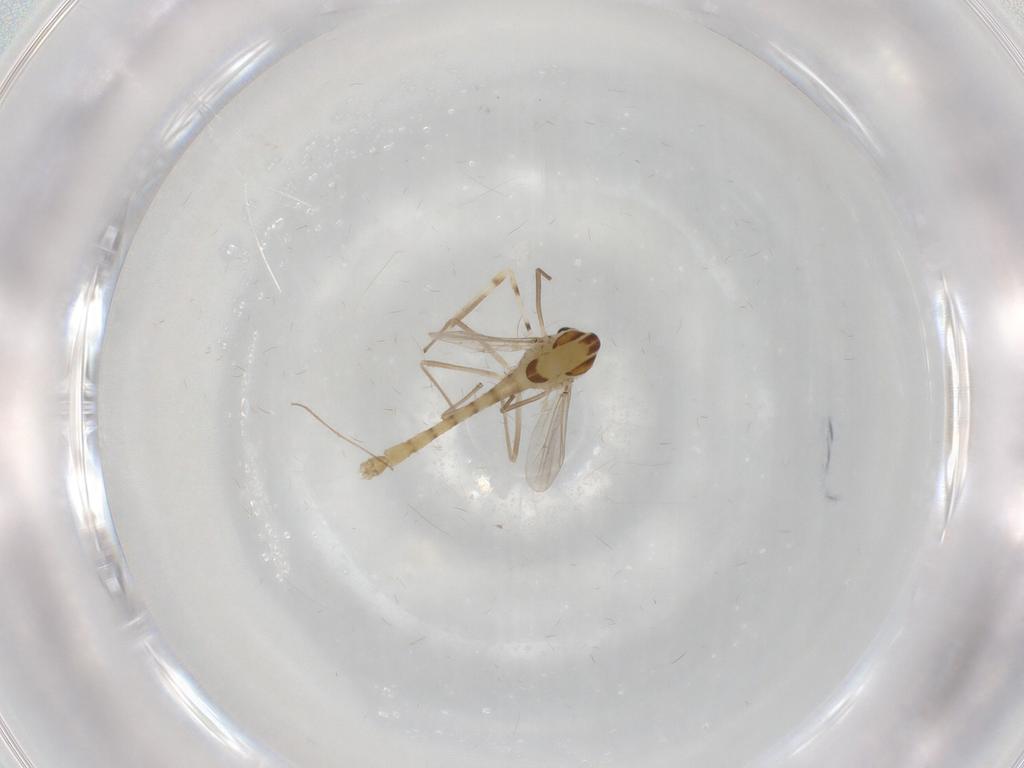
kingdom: Animalia
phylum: Arthropoda
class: Insecta
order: Diptera
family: Chironomidae
